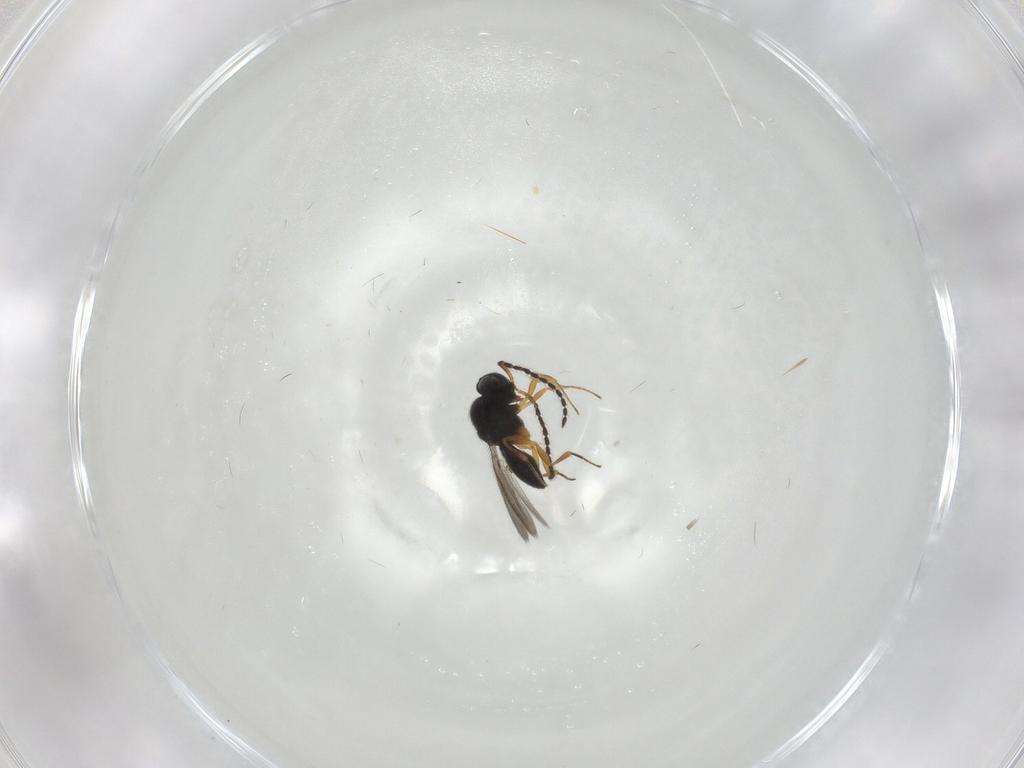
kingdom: Animalia
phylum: Arthropoda
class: Insecta
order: Hymenoptera
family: Scelionidae
